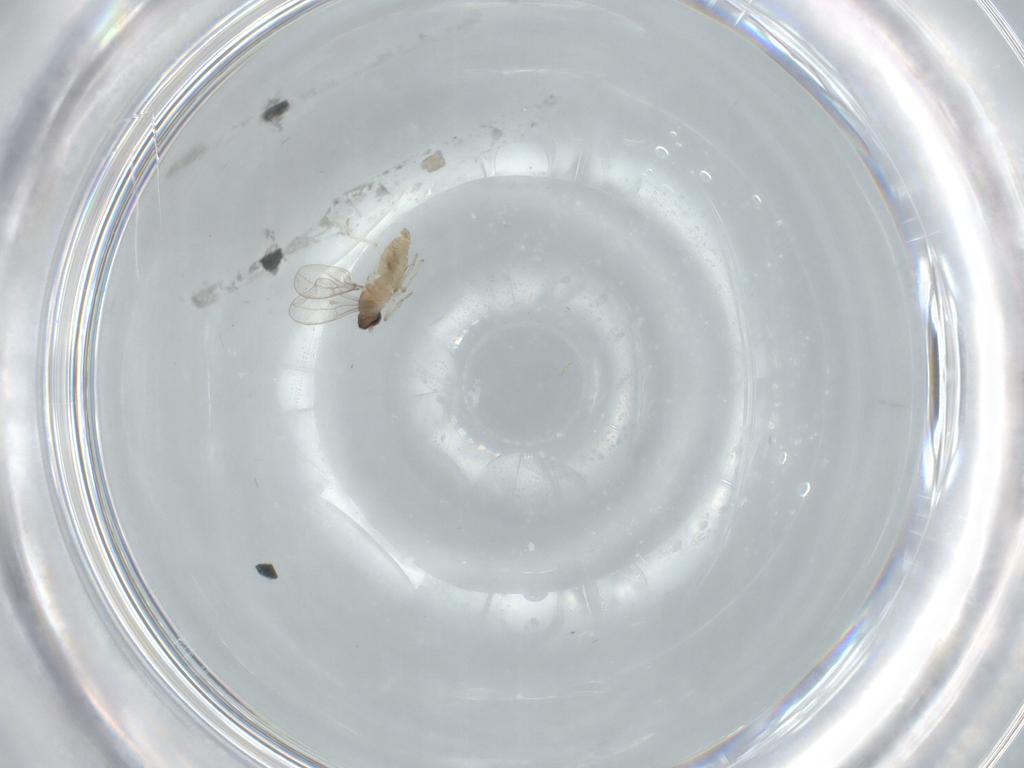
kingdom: Animalia
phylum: Arthropoda
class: Insecta
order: Diptera
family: Cecidomyiidae
